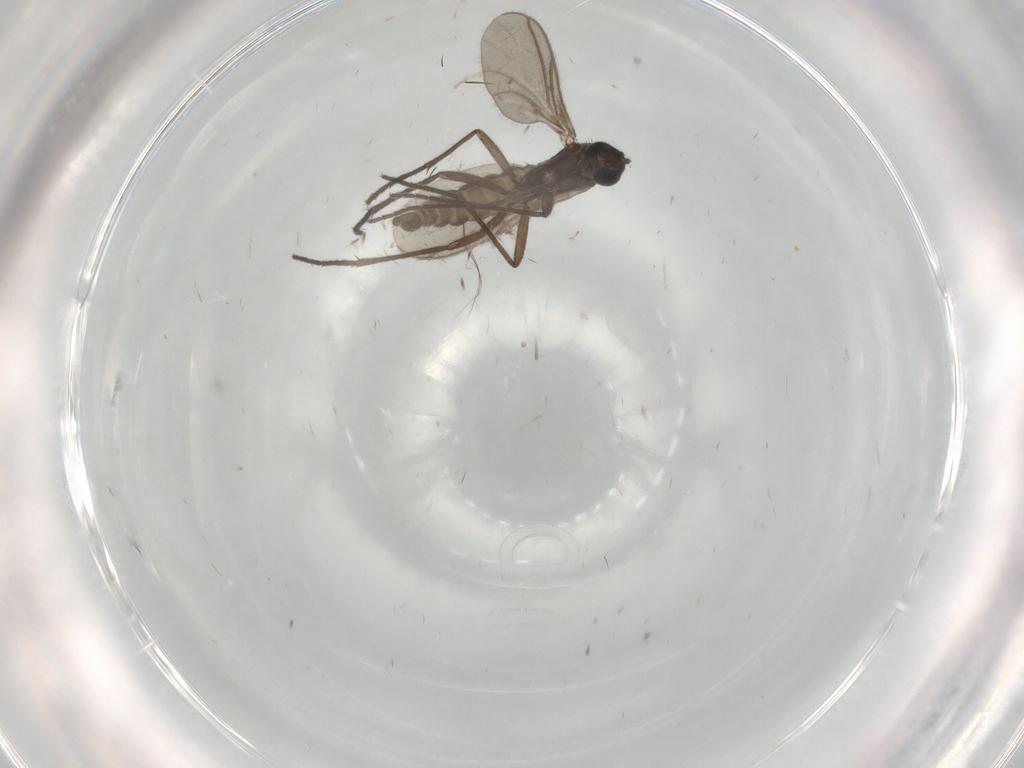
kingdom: Animalia
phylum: Arthropoda
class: Insecta
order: Diptera
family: Sciaridae
